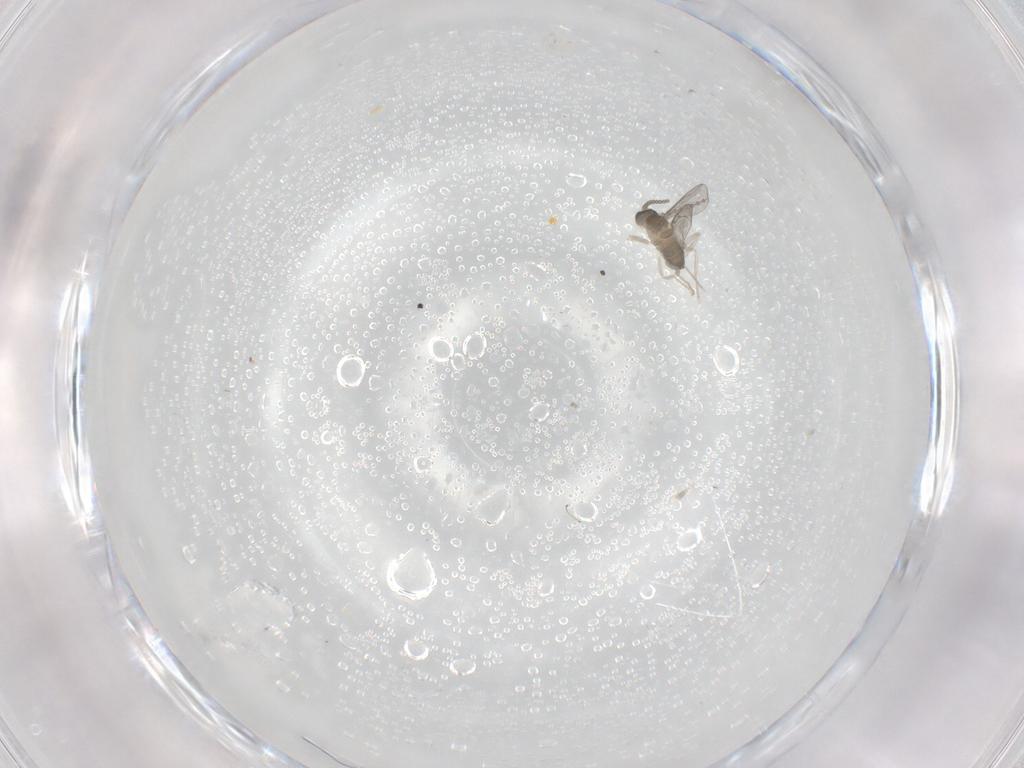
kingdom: Animalia
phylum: Arthropoda
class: Insecta
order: Diptera
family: Cecidomyiidae
